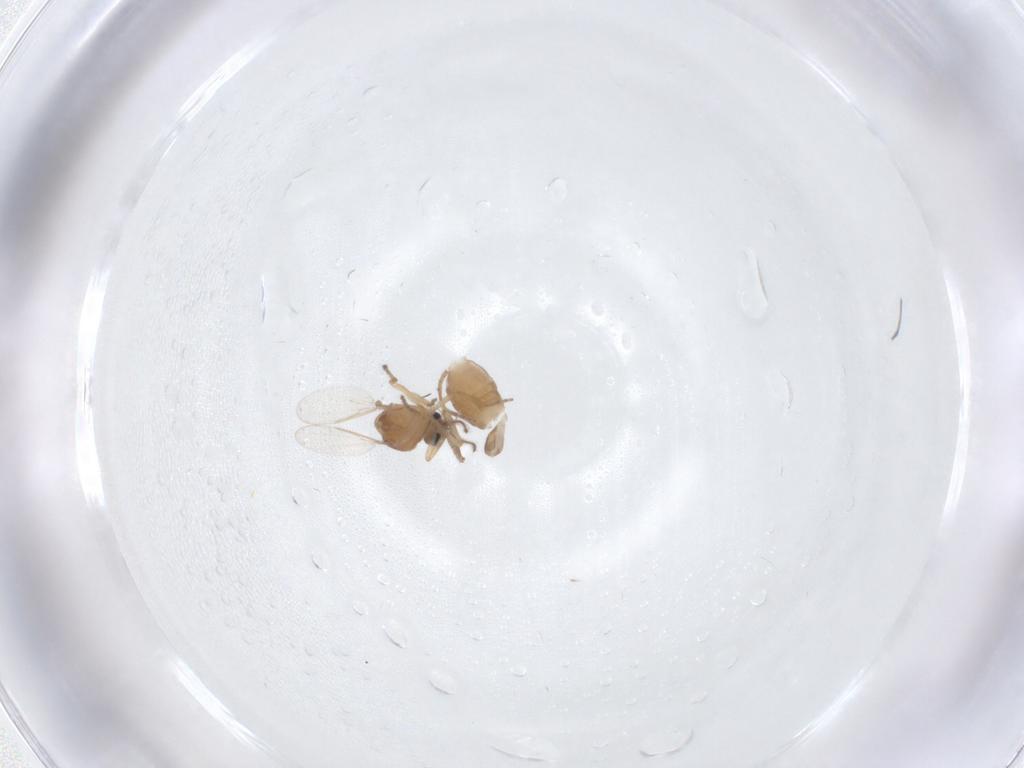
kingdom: Animalia
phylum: Arthropoda
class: Insecta
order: Diptera
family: Ceratopogonidae
